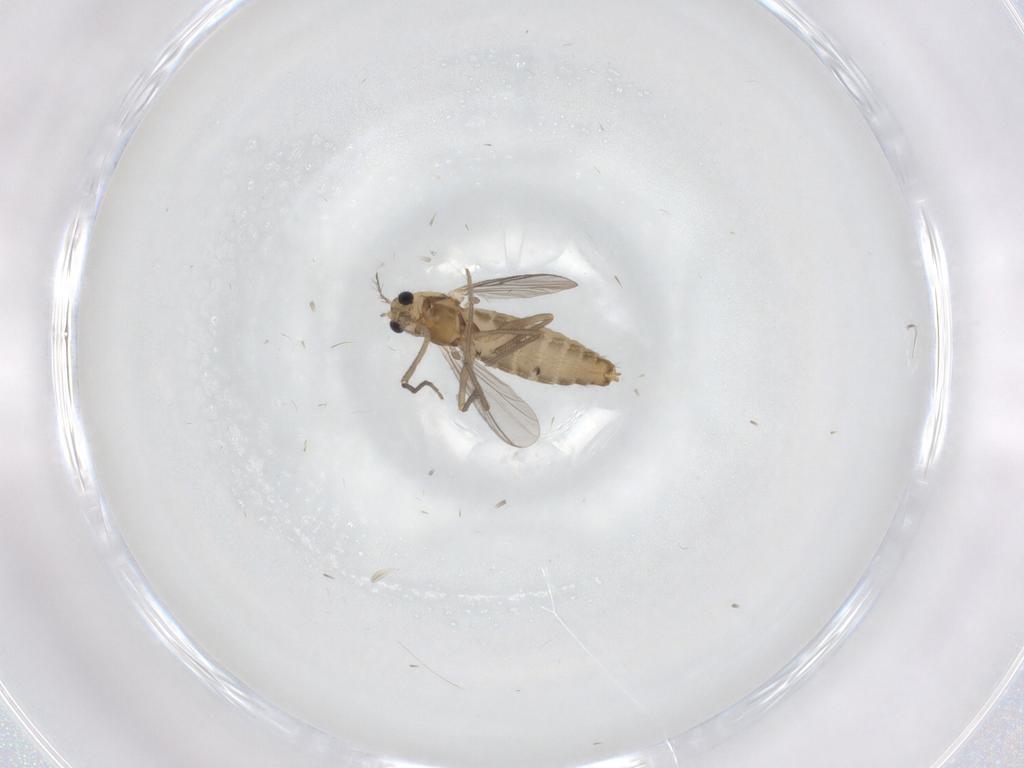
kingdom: Animalia
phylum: Arthropoda
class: Insecta
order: Diptera
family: Chironomidae
